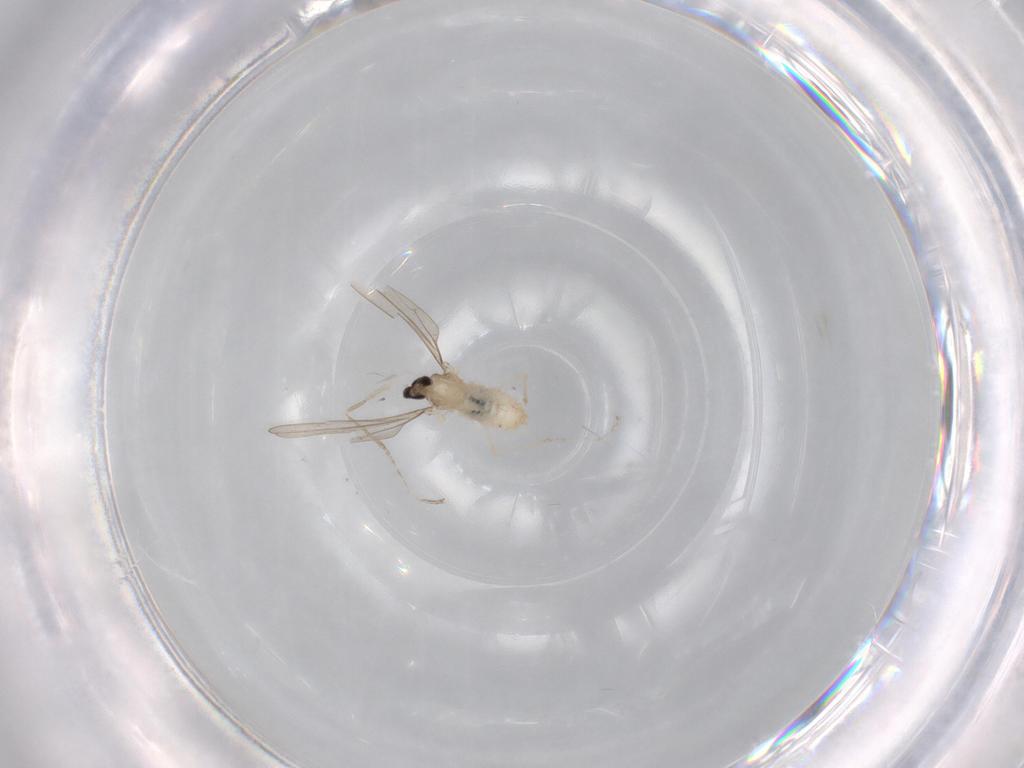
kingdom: Animalia
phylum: Arthropoda
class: Insecta
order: Diptera
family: Cecidomyiidae
